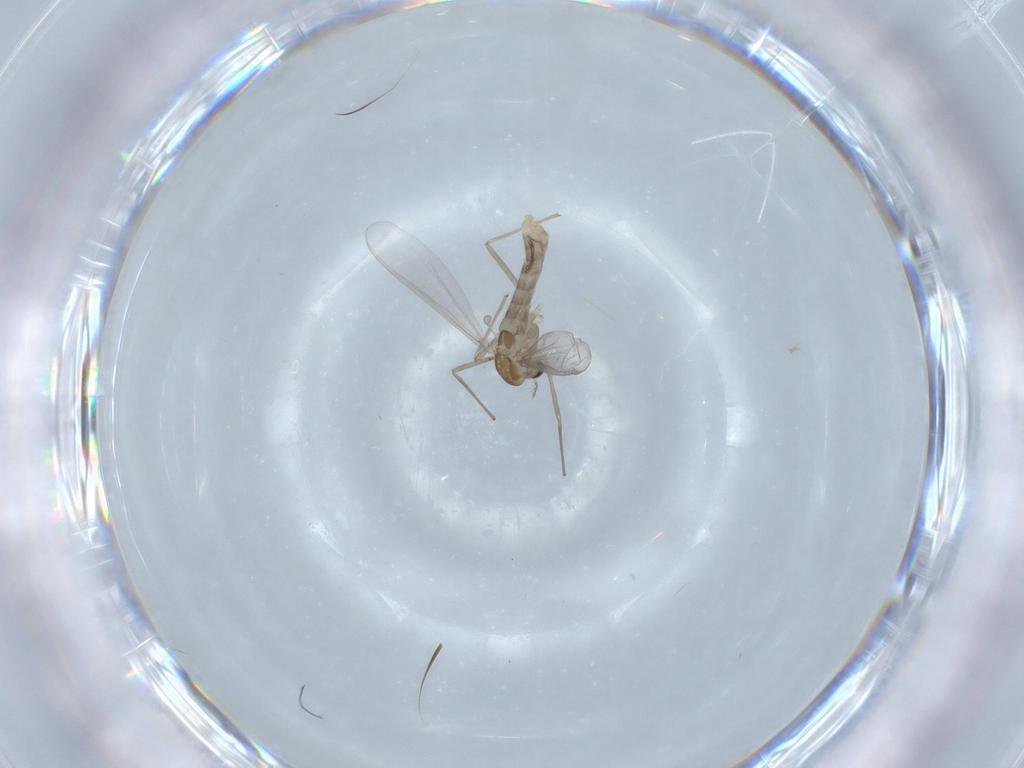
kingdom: Animalia
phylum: Arthropoda
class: Insecta
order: Diptera
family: Chironomidae
